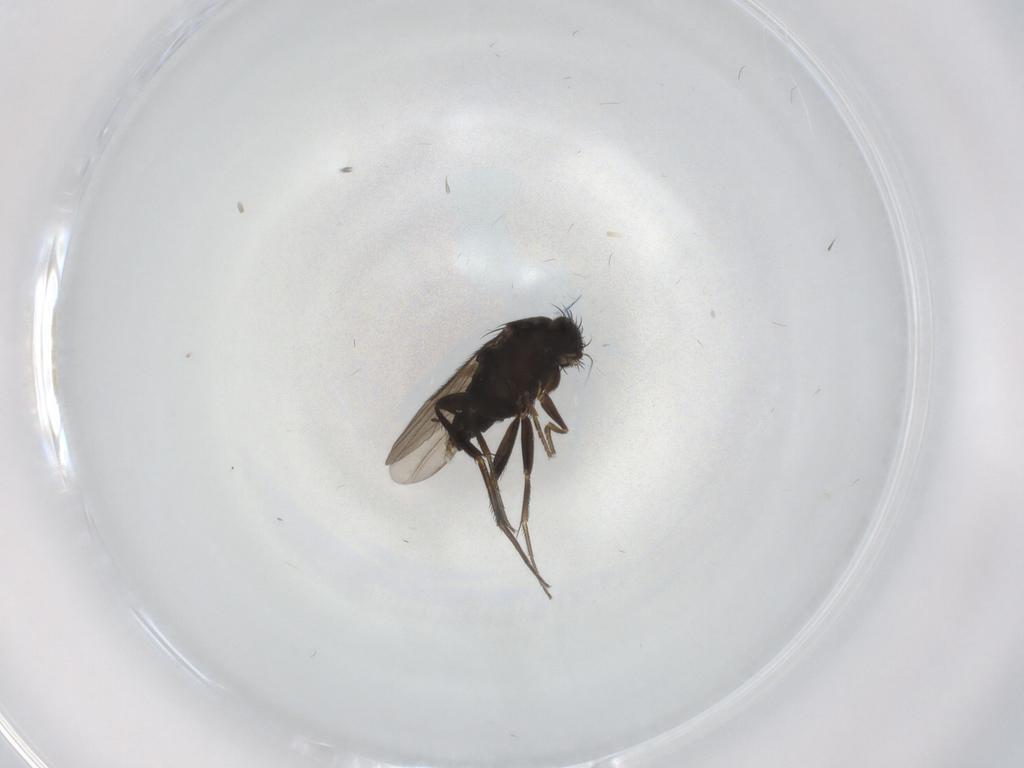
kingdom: Animalia
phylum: Arthropoda
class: Insecta
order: Diptera
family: Phoridae
